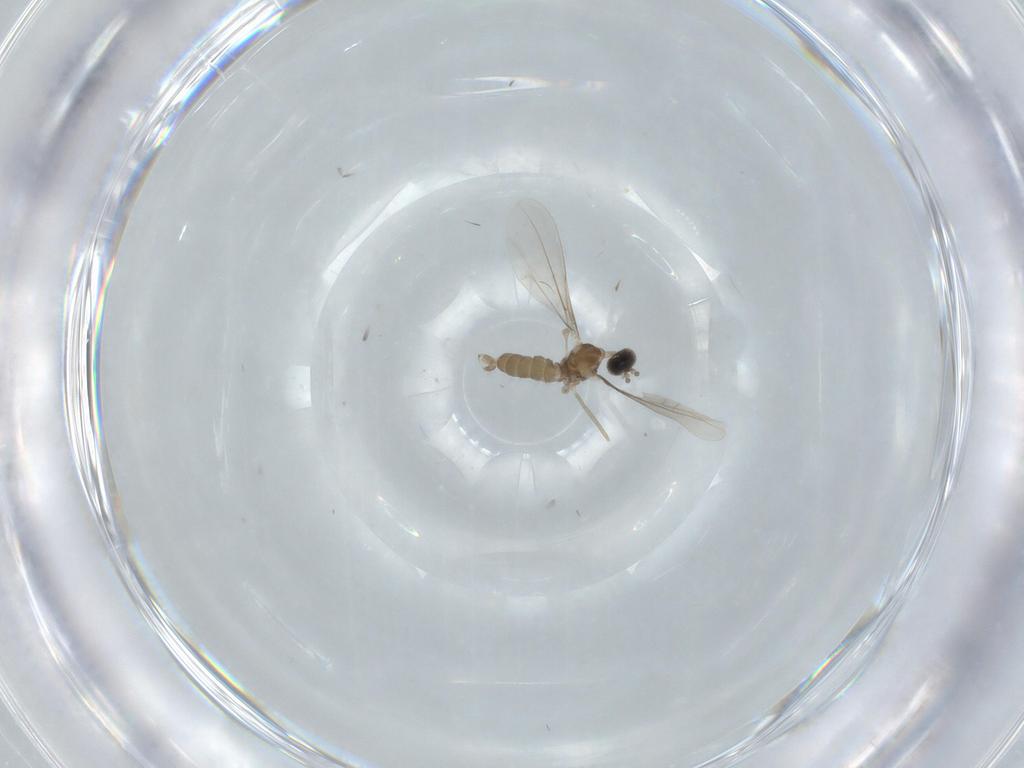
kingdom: Animalia
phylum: Arthropoda
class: Insecta
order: Diptera
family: Cecidomyiidae
